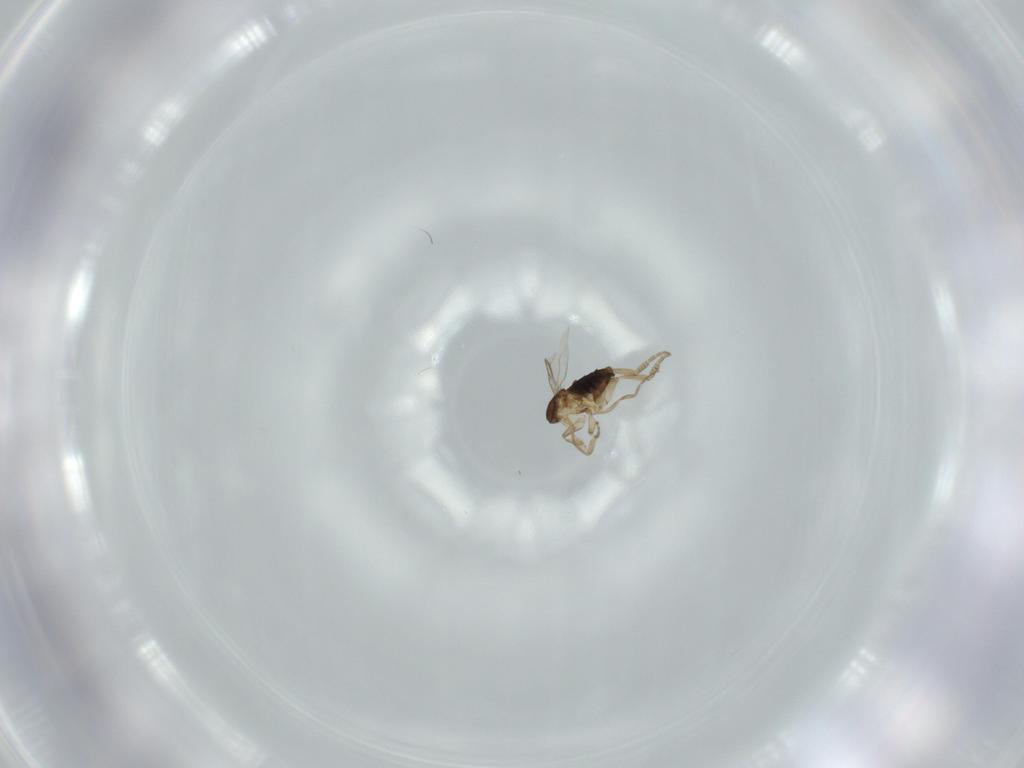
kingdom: Animalia
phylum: Arthropoda
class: Insecta
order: Diptera
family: Phoridae
